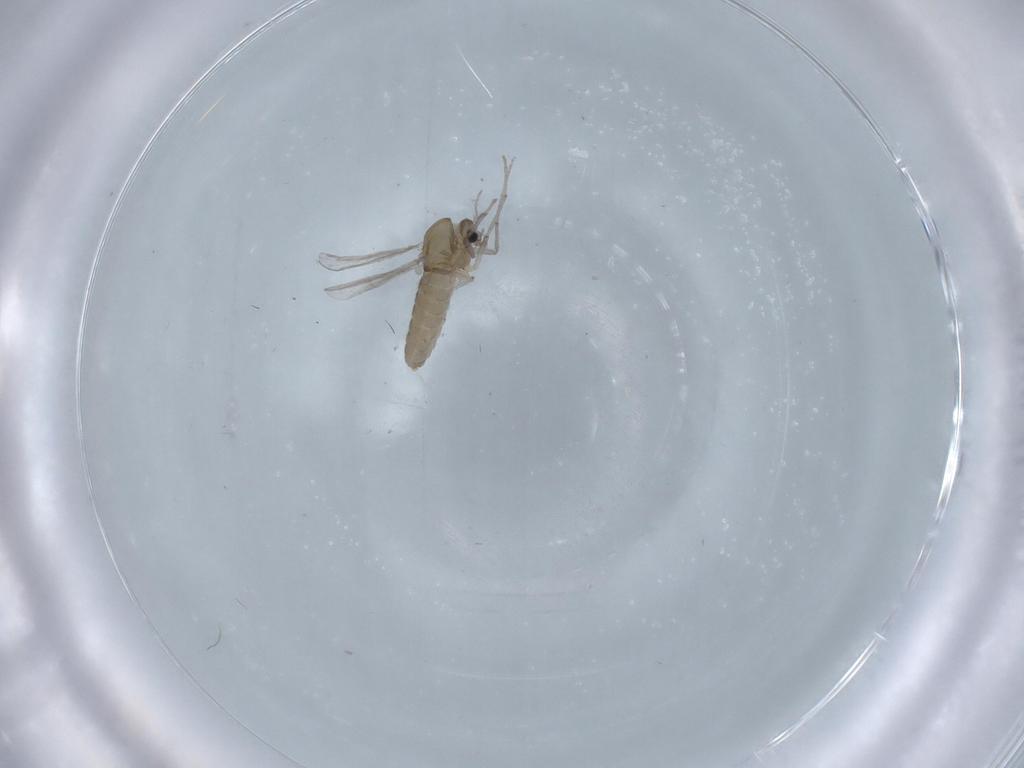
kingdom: Animalia
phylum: Arthropoda
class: Insecta
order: Diptera
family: Chironomidae
